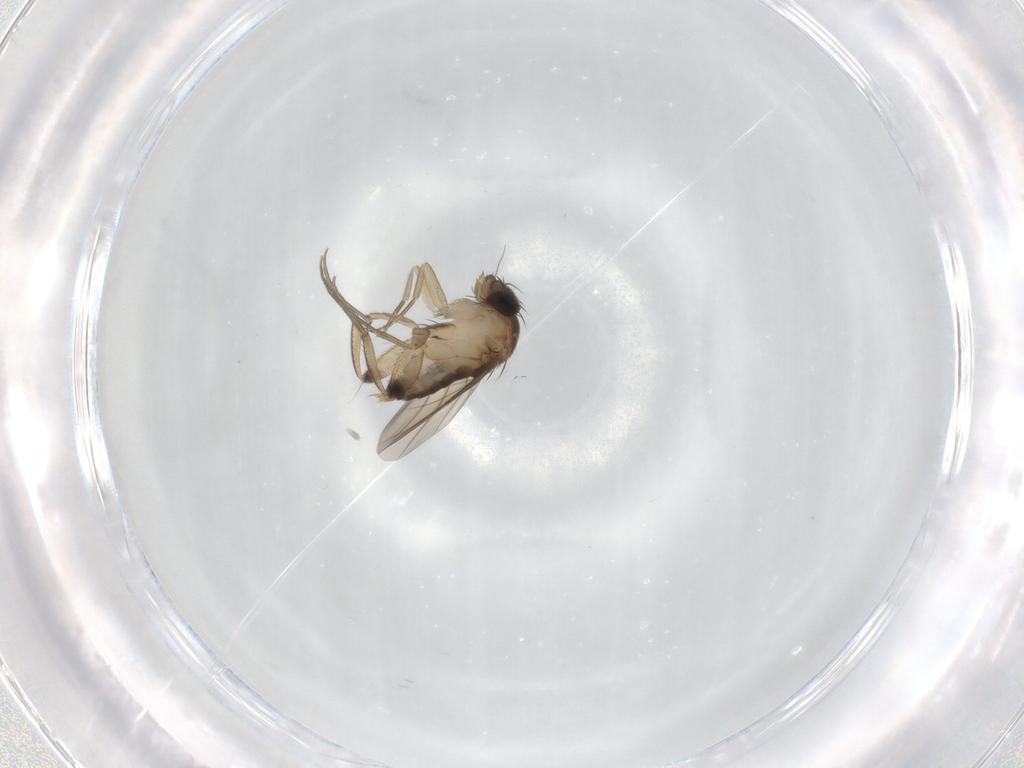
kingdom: Animalia
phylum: Arthropoda
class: Insecta
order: Diptera
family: Phoridae
